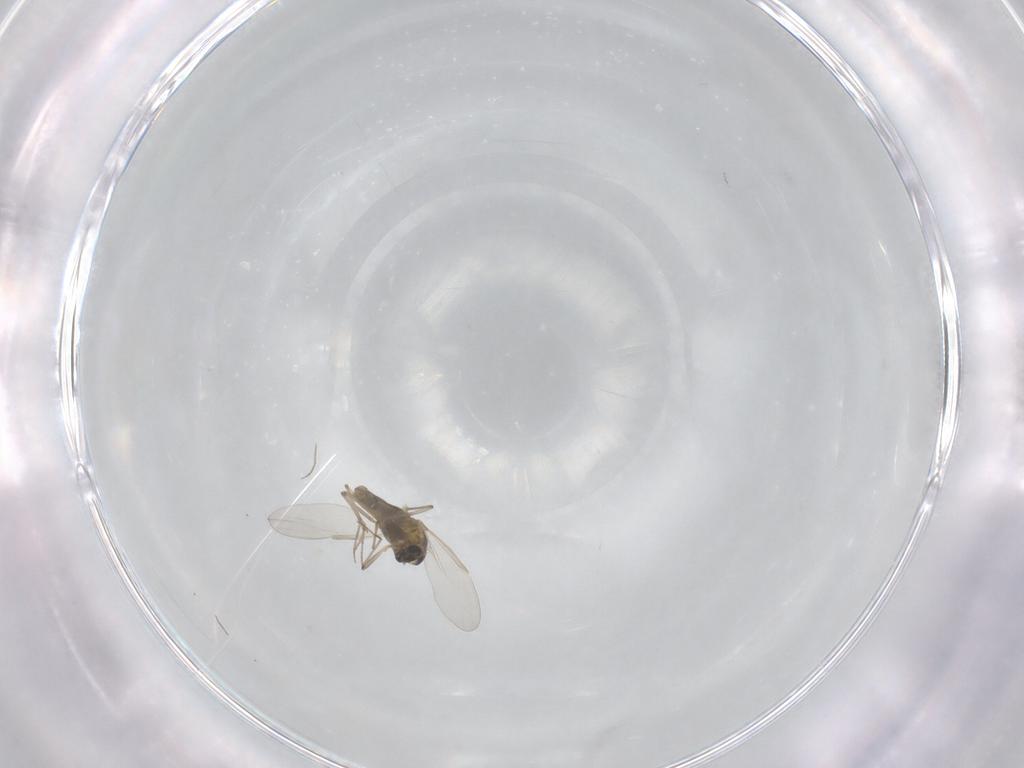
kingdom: Animalia
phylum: Arthropoda
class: Insecta
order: Diptera
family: Chironomidae
